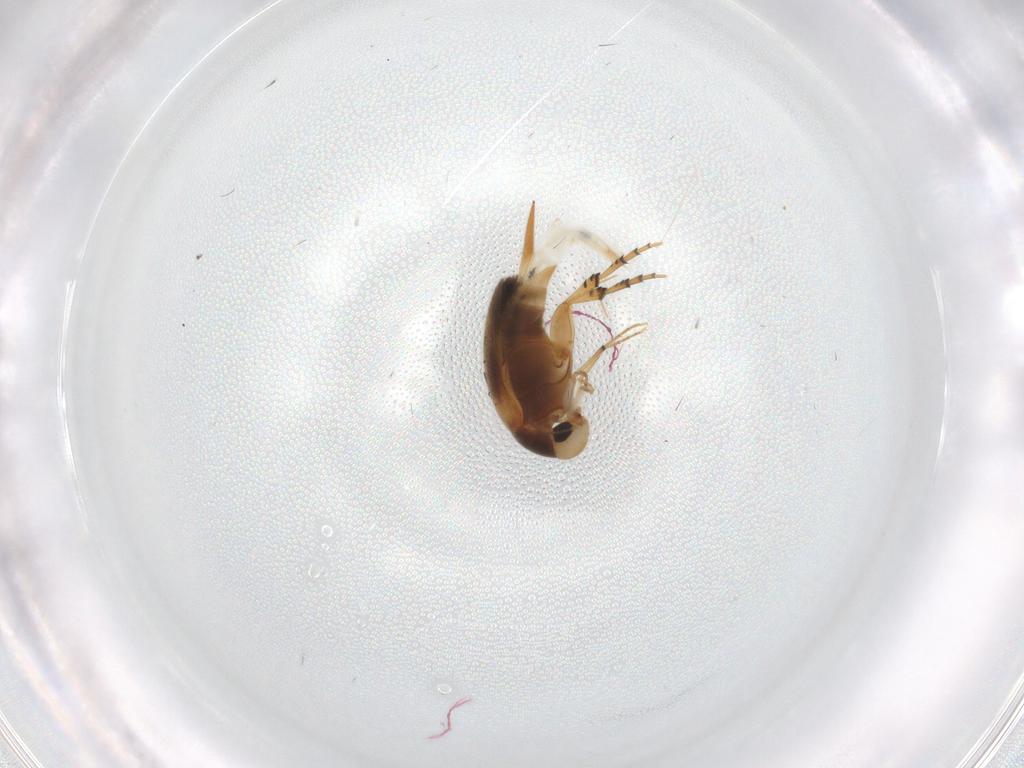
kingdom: Animalia
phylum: Arthropoda
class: Insecta
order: Coleoptera
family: Mordellidae
